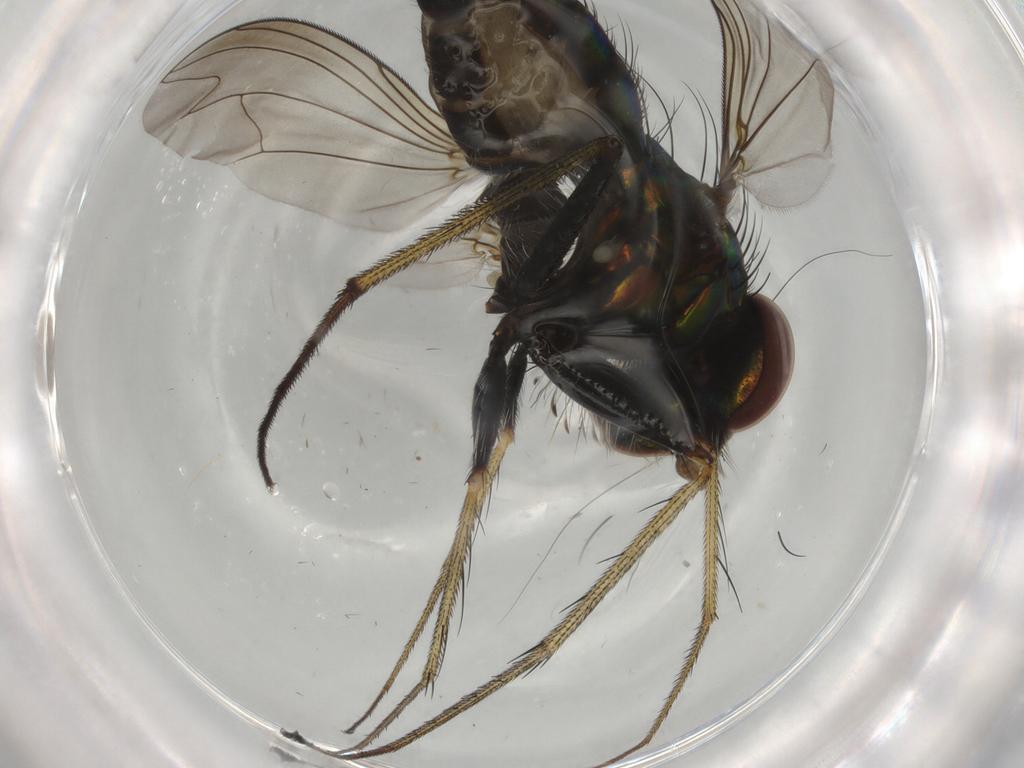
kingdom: Animalia
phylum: Arthropoda
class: Insecta
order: Diptera
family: Dolichopodidae
